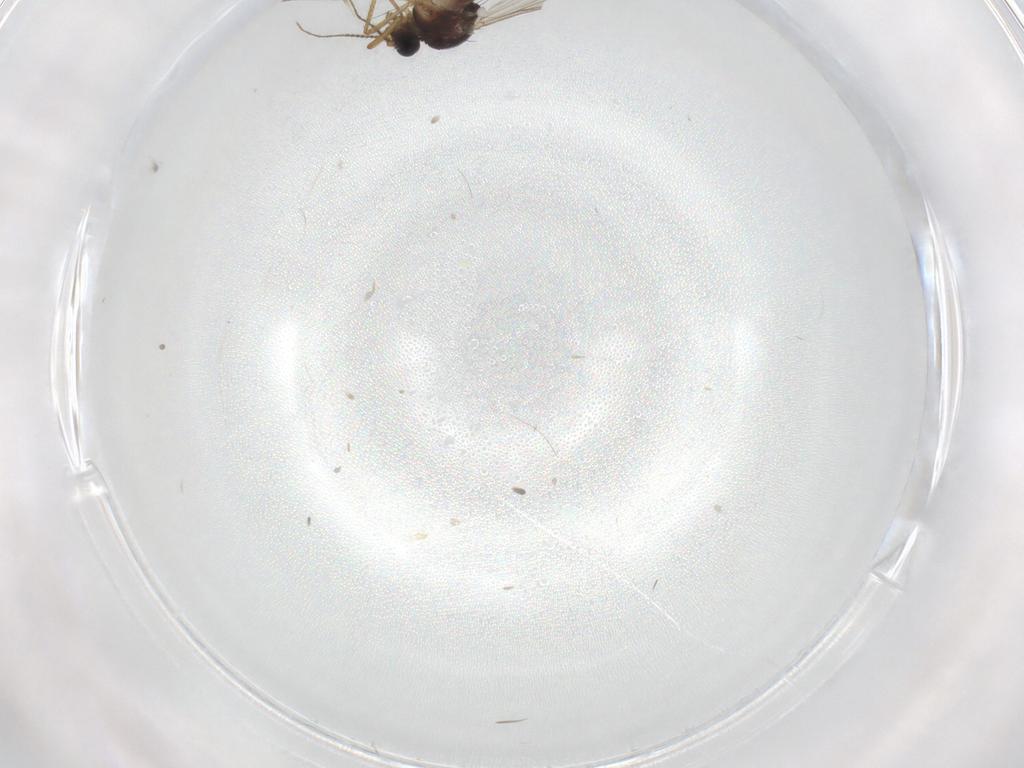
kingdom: Animalia
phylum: Arthropoda
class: Insecta
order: Diptera
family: Ceratopogonidae
